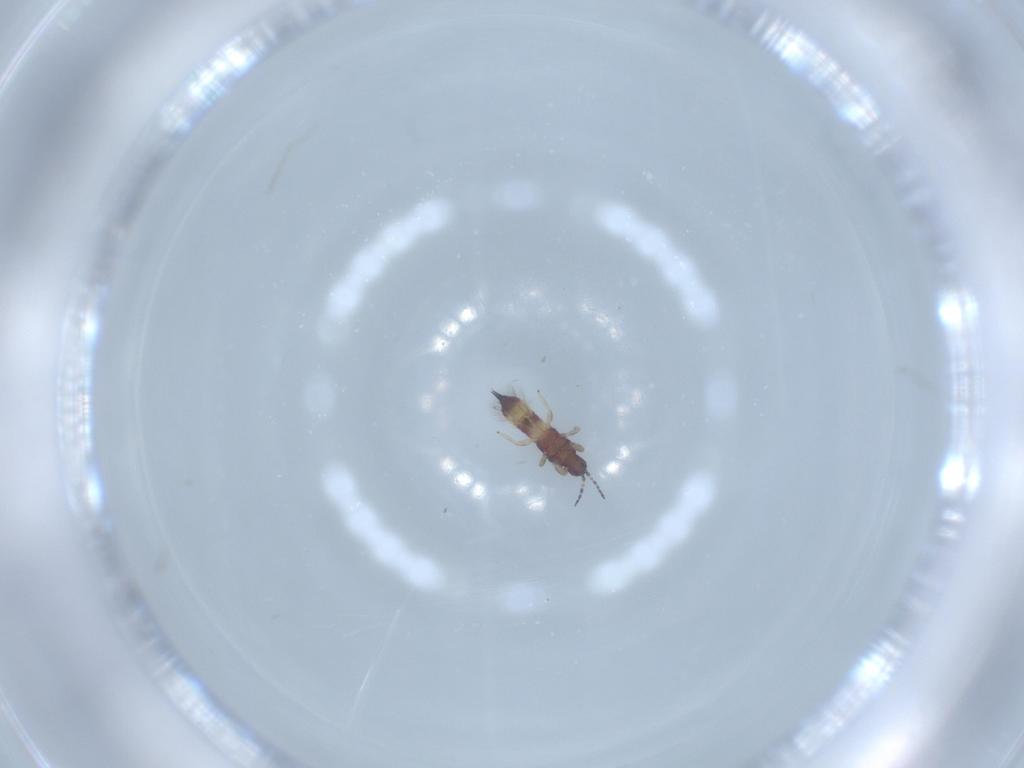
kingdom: Animalia
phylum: Arthropoda
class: Insecta
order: Thysanoptera
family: Phlaeothripidae
